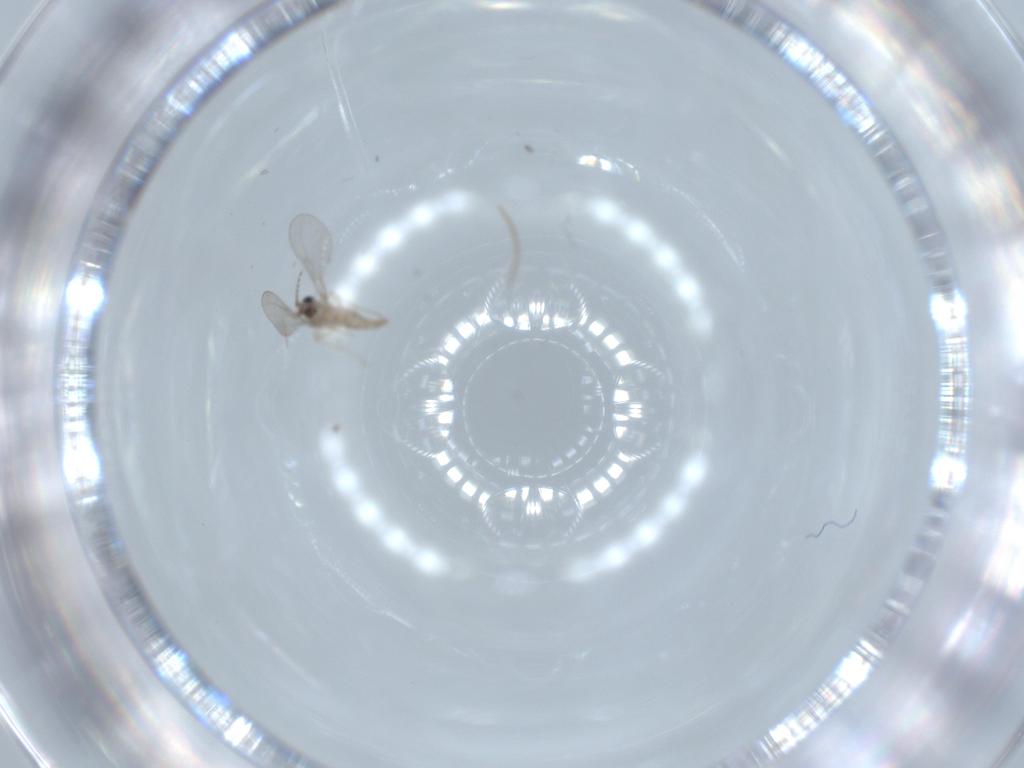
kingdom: Animalia
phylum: Arthropoda
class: Insecta
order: Diptera
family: Cecidomyiidae
